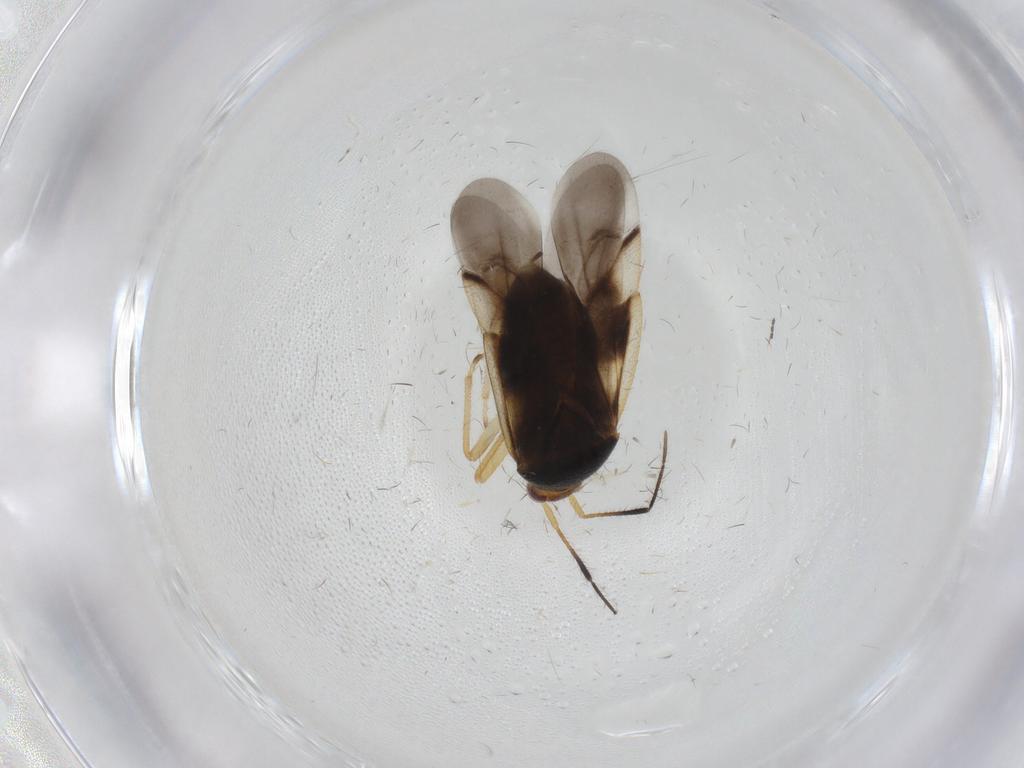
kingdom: Animalia
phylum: Arthropoda
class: Insecta
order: Hemiptera
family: Miridae
